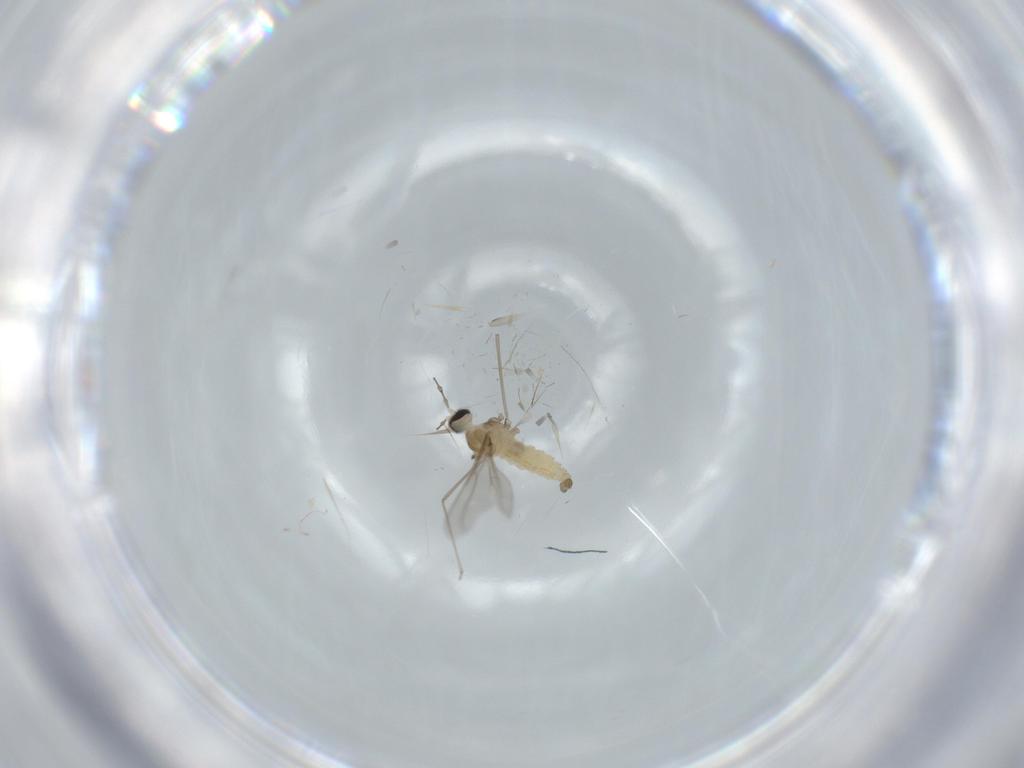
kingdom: Animalia
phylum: Arthropoda
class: Insecta
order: Diptera
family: Cecidomyiidae
